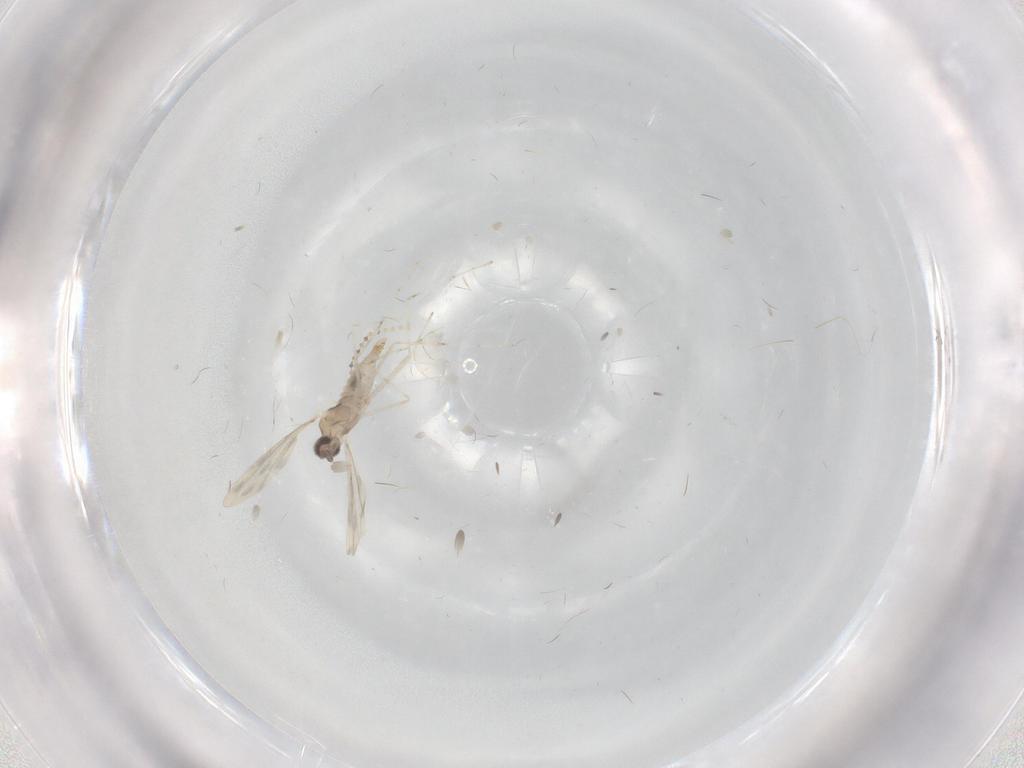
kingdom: Animalia
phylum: Arthropoda
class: Insecta
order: Diptera
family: Cecidomyiidae
